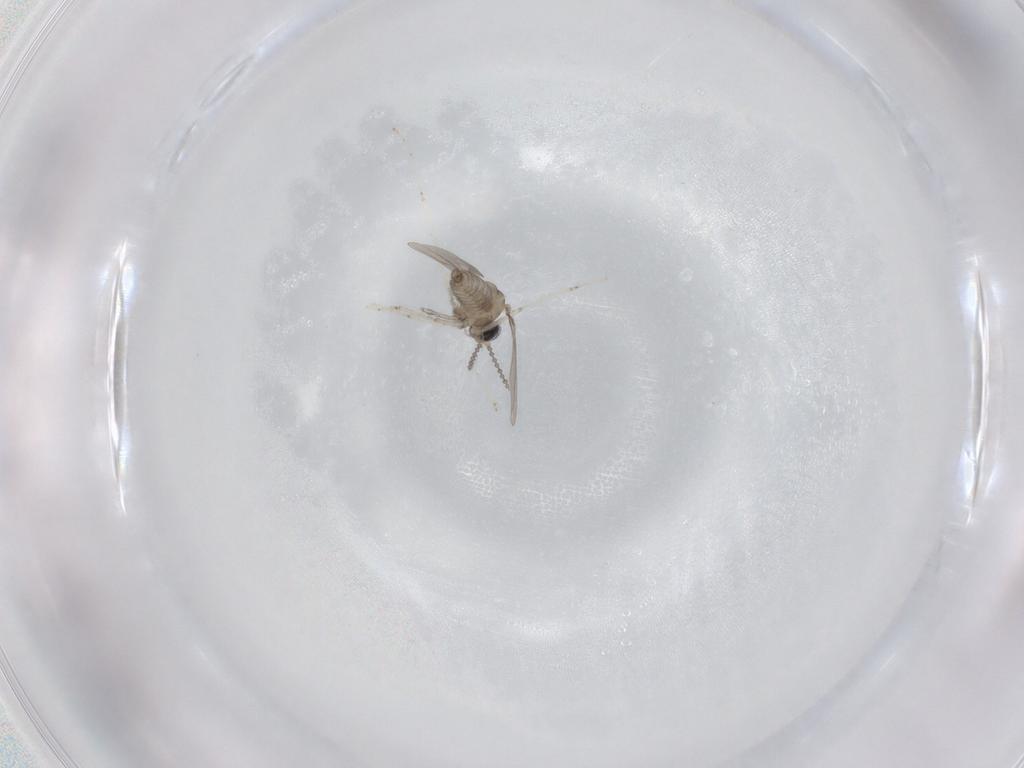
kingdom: Animalia
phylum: Arthropoda
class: Insecta
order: Diptera
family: Cecidomyiidae
